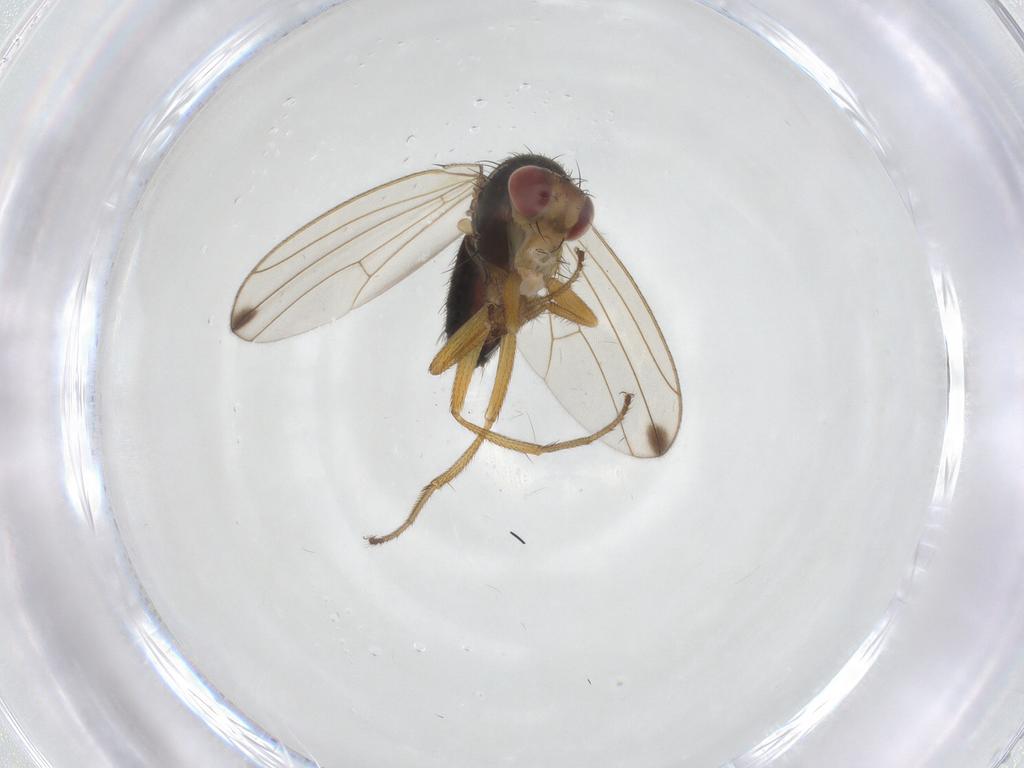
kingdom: Animalia
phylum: Arthropoda
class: Insecta
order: Diptera
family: Drosophilidae
